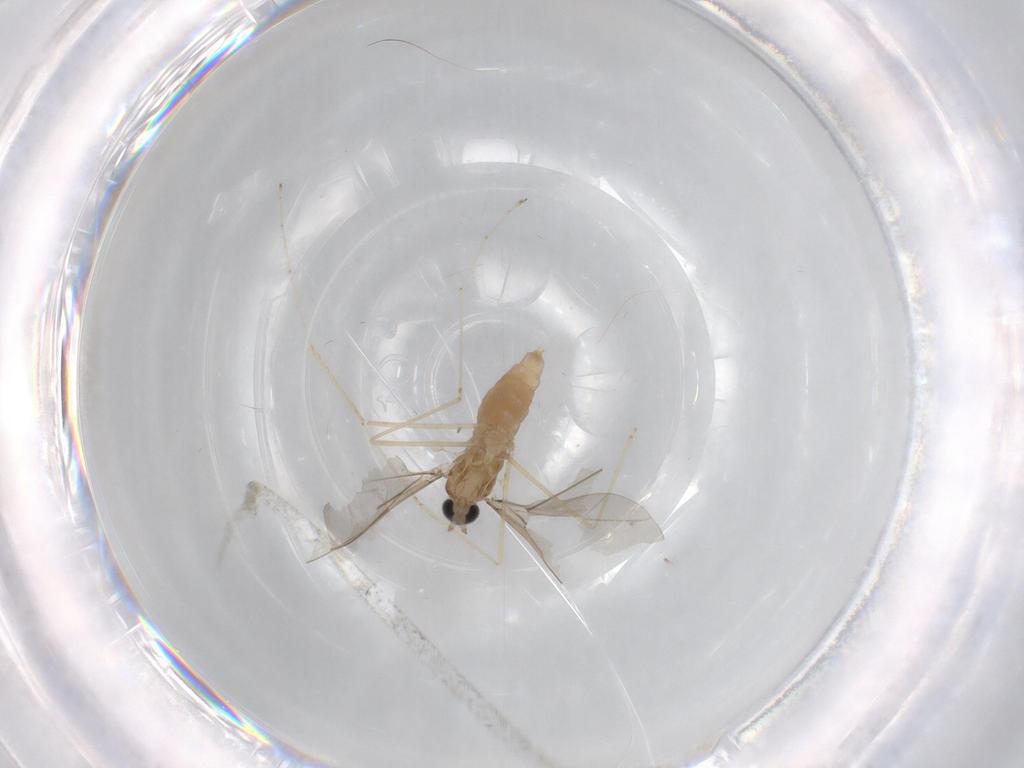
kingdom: Animalia
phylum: Arthropoda
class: Insecta
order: Diptera
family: Cecidomyiidae
